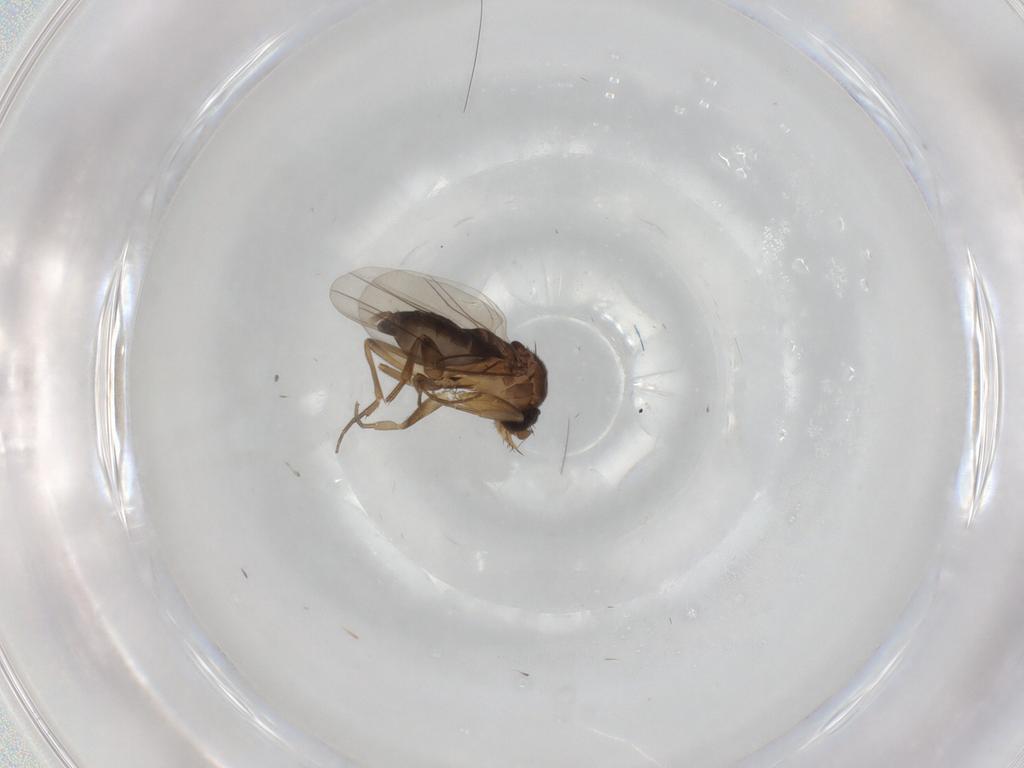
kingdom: Animalia
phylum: Arthropoda
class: Insecta
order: Diptera
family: Phoridae
